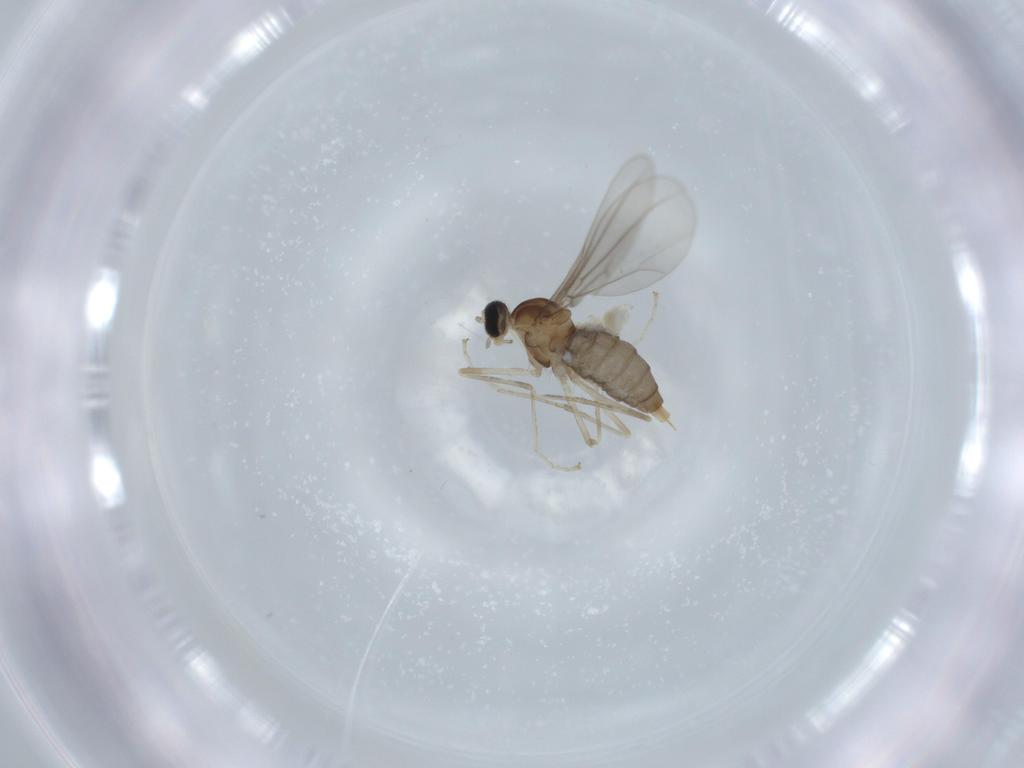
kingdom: Animalia
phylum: Arthropoda
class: Insecta
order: Diptera
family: Cecidomyiidae
